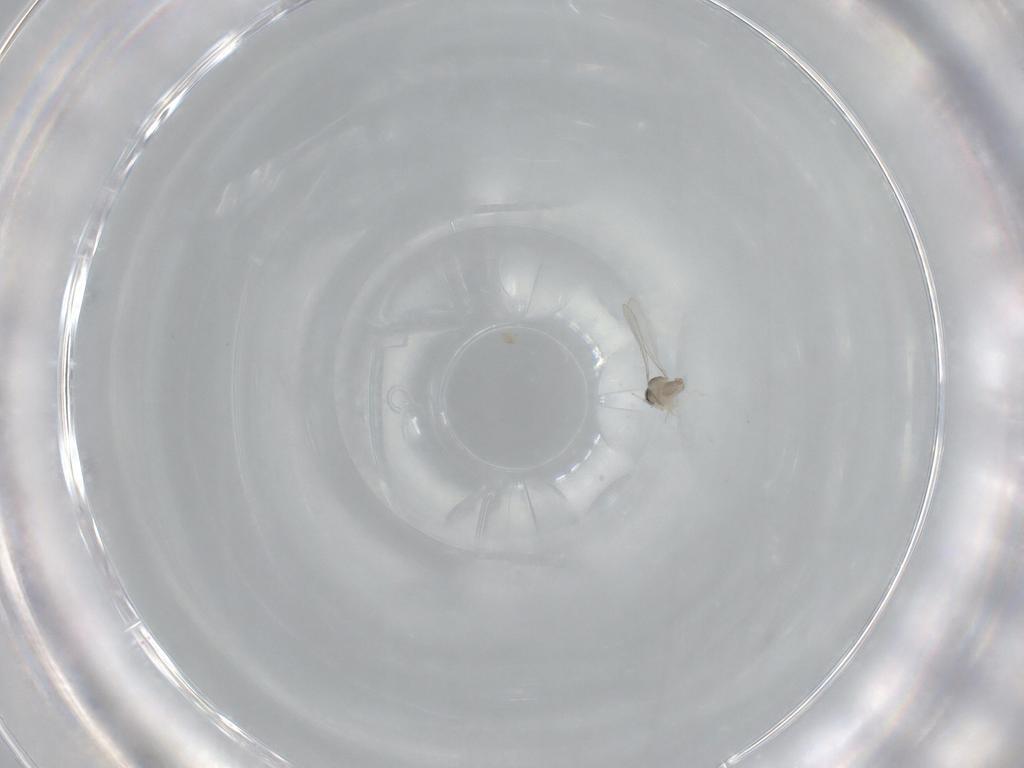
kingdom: Animalia
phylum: Arthropoda
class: Insecta
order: Diptera
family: Cecidomyiidae
